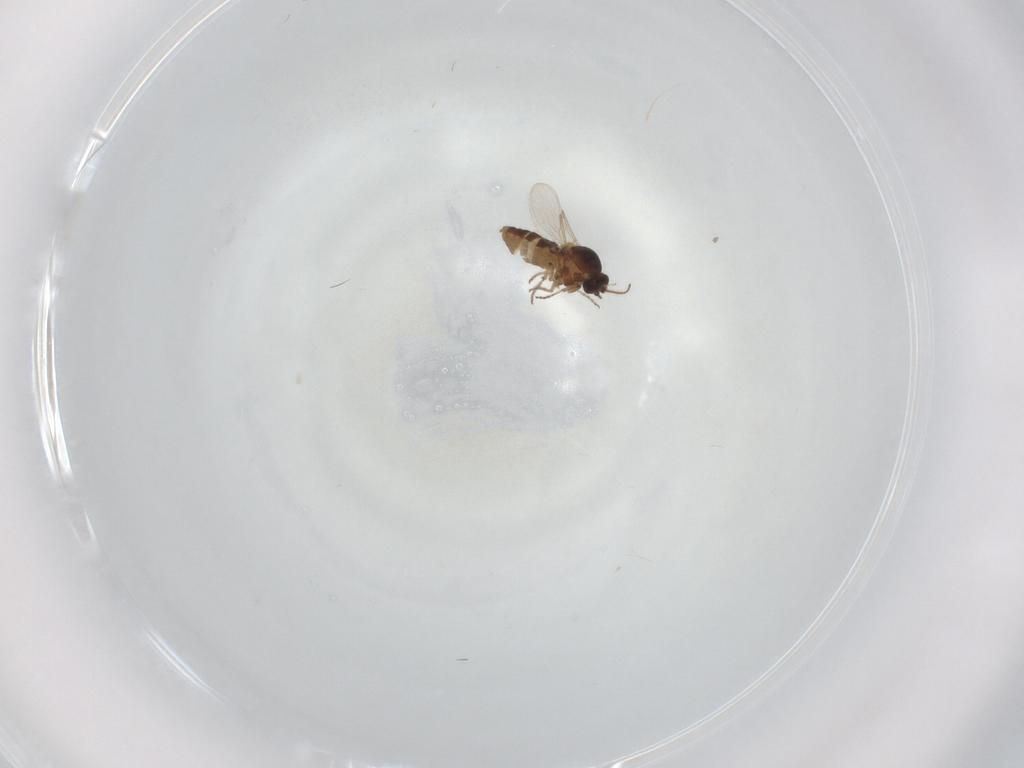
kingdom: Animalia
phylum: Arthropoda
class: Insecta
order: Diptera
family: Ceratopogonidae
